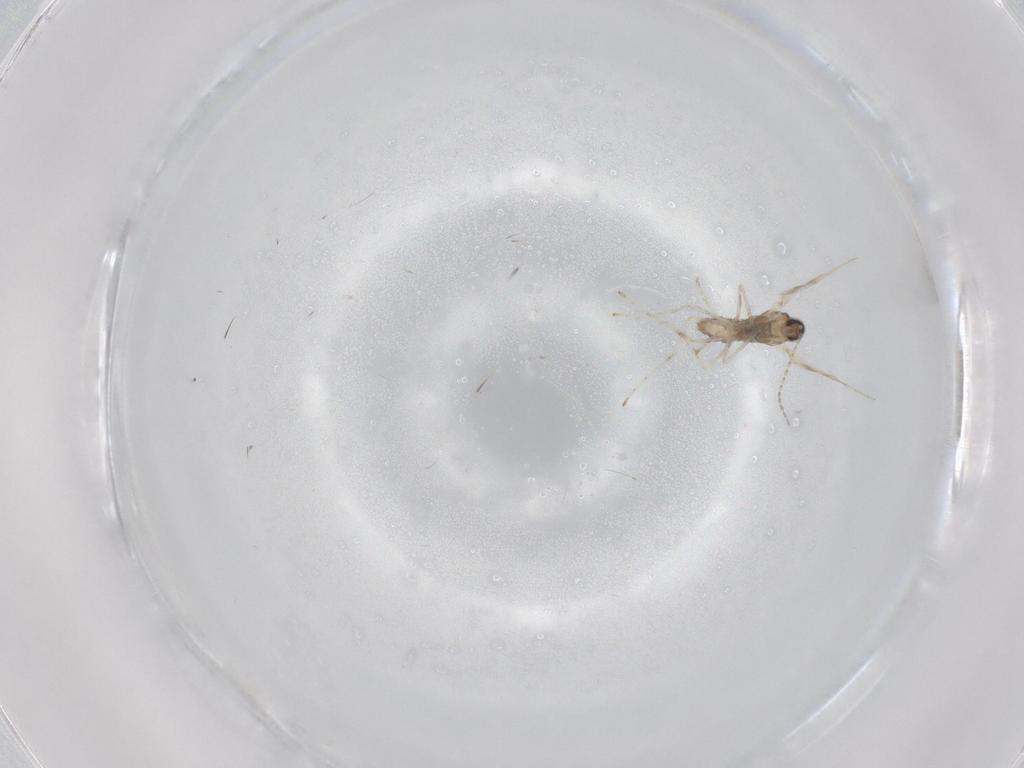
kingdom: Animalia
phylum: Arthropoda
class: Insecta
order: Diptera
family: Cecidomyiidae
